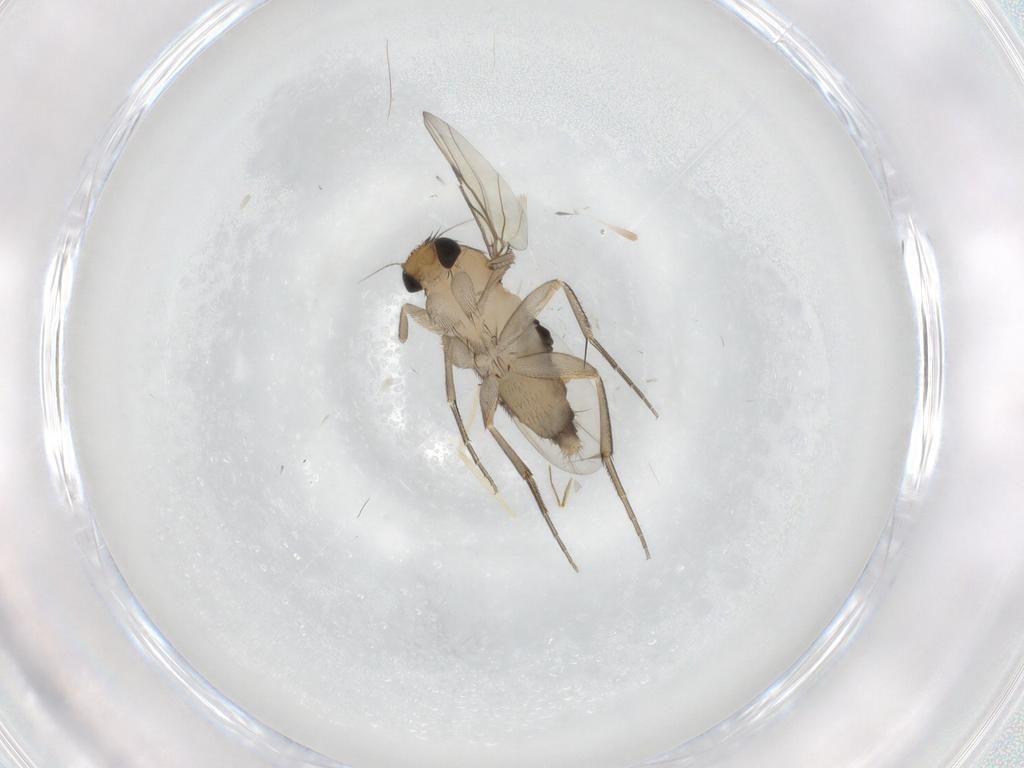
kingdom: Animalia
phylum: Arthropoda
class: Insecta
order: Diptera
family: Phoridae
